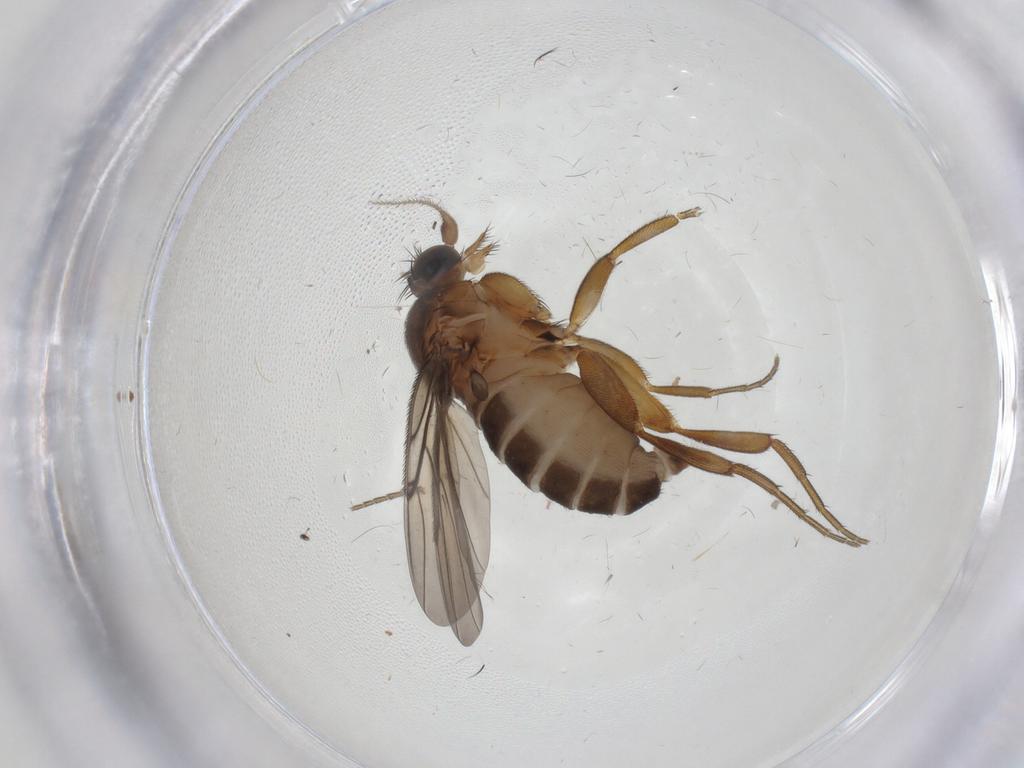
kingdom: Animalia
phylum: Arthropoda
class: Insecta
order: Diptera
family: Phoridae
